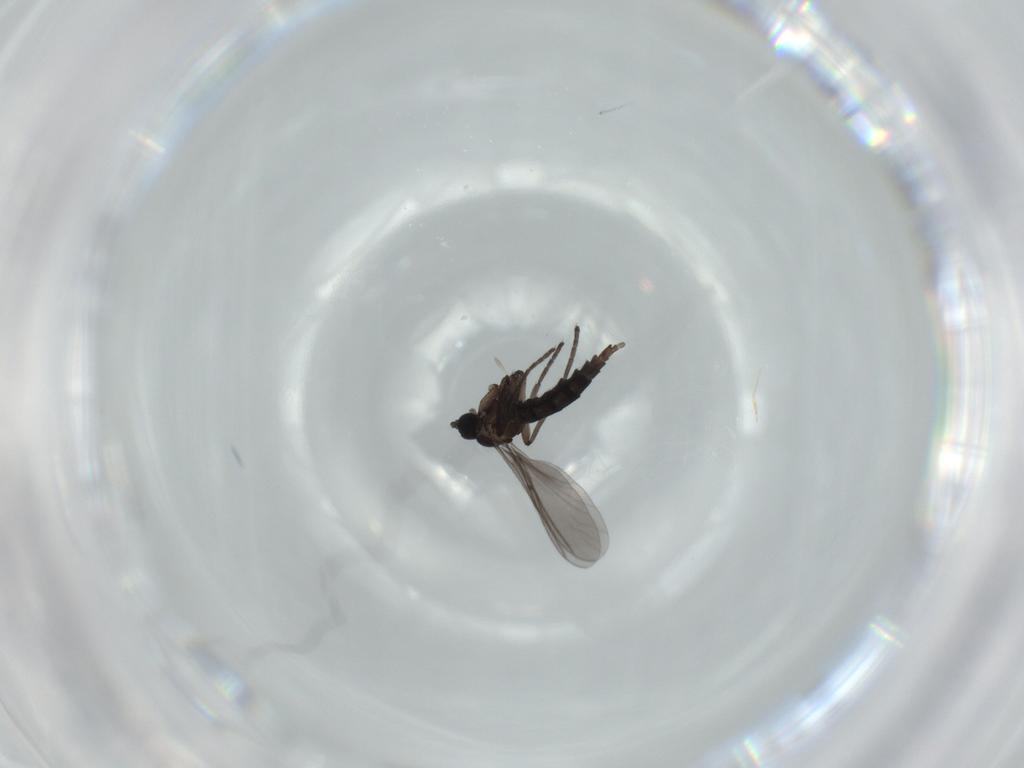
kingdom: Animalia
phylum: Arthropoda
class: Insecta
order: Diptera
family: Sciaridae
